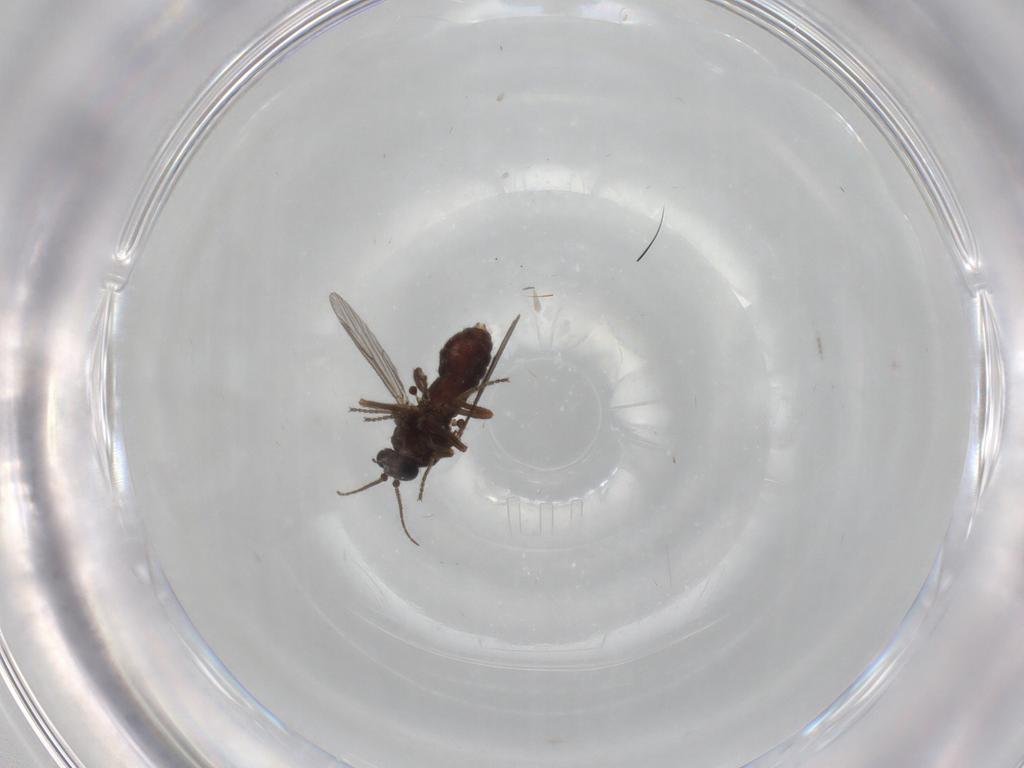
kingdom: Animalia
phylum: Arthropoda
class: Insecta
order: Diptera
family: Ceratopogonidae
